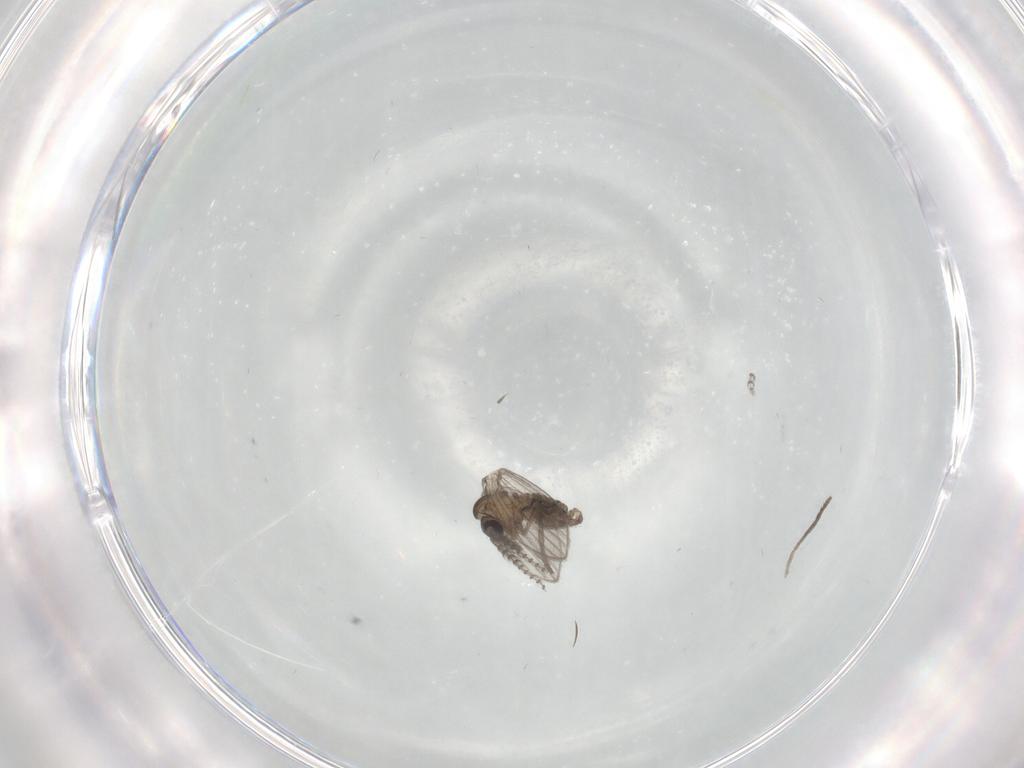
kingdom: Animalia
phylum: Arthropoda
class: Insecta
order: Diptera
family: Psychodidae
